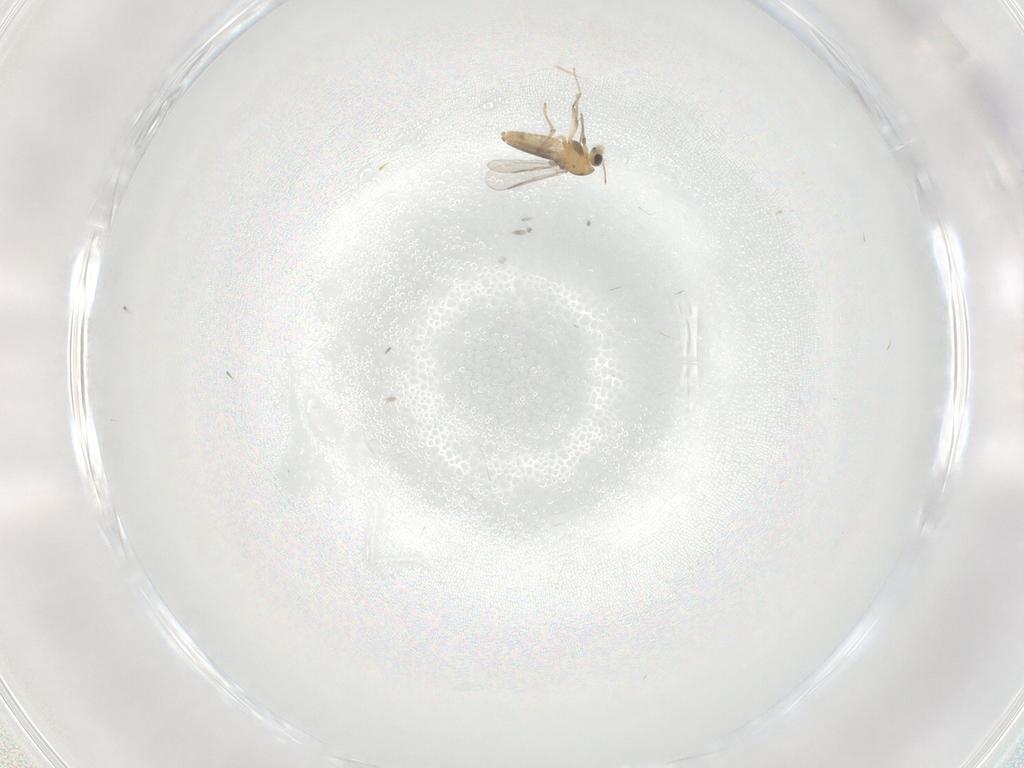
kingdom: Animalia
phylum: Arthropoda
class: Insecta
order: Diptera
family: Chironomidae
